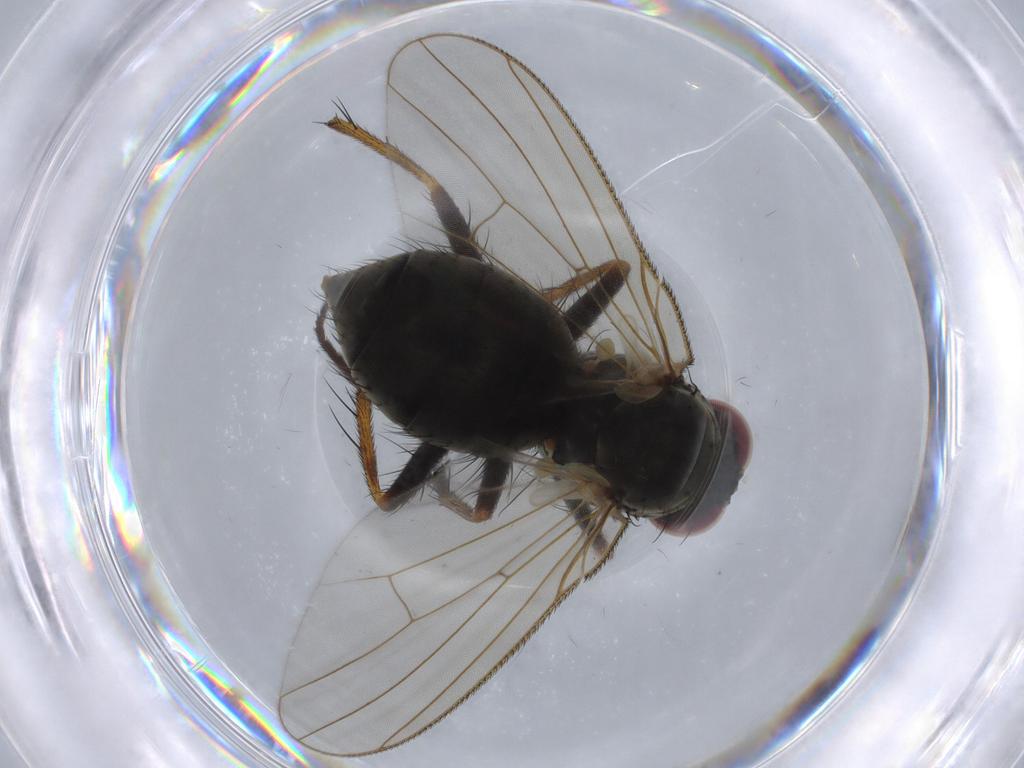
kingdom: Animalia
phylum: Arthropoda
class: Insecta
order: Diptera
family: Muscidae
